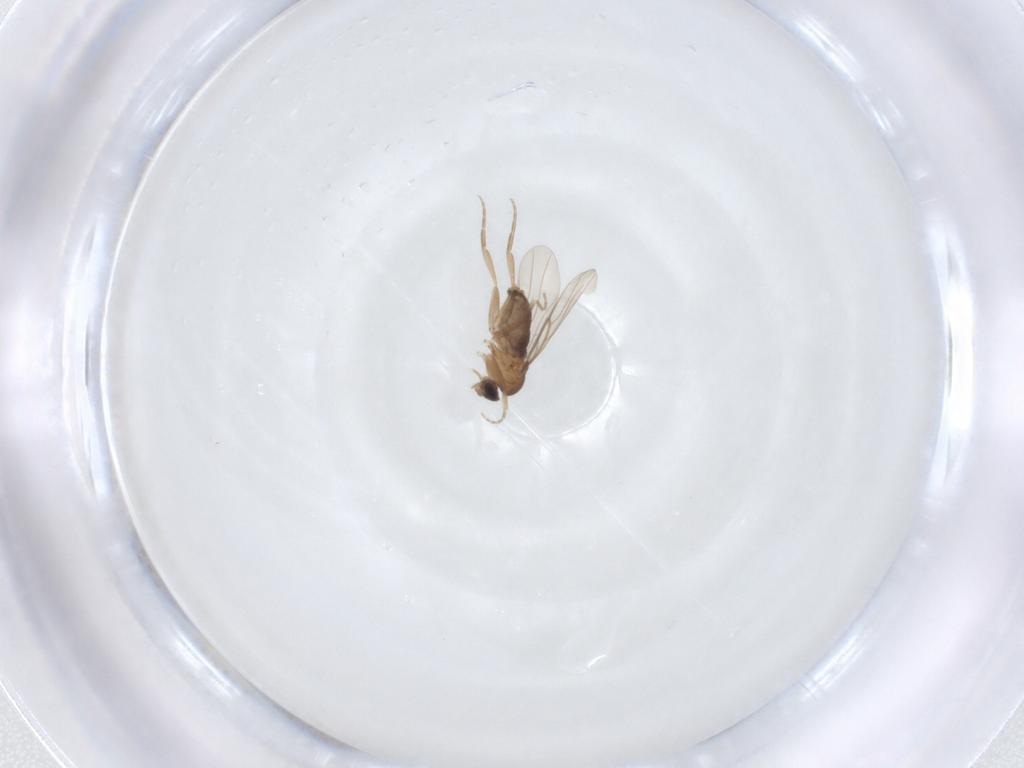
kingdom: Animalia
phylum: Arthropoda
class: Insecta
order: Diptera
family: Phoridae
